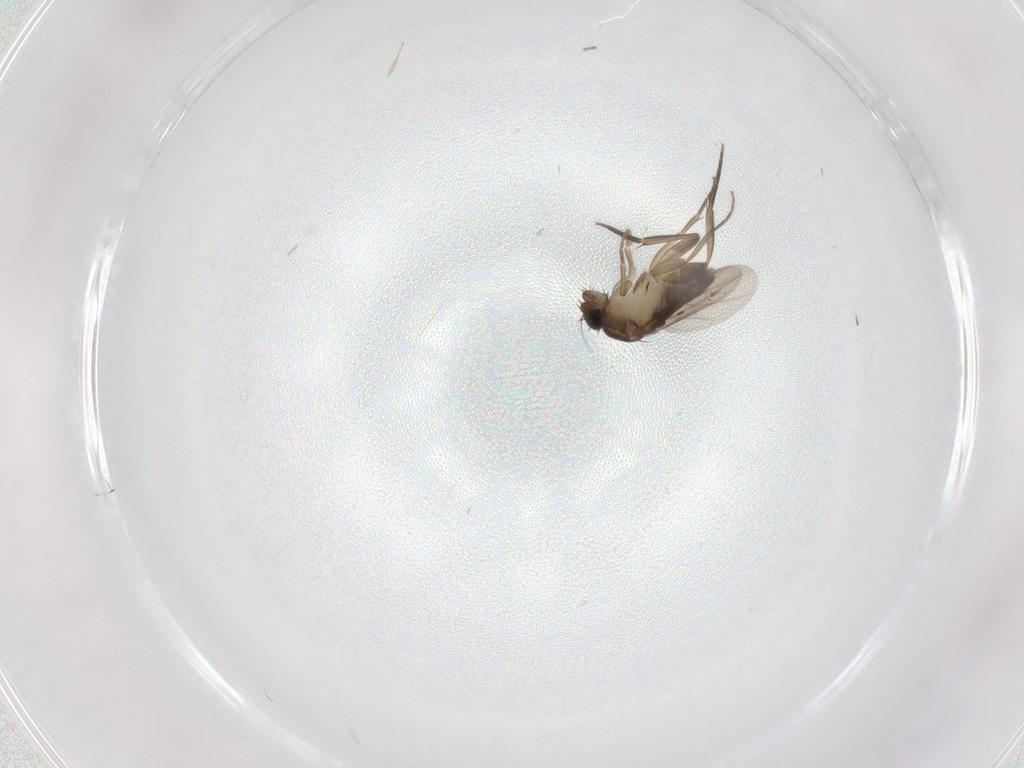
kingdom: Animalia
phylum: Arthropoda
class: Insecta
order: Diptera
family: Phoridae
